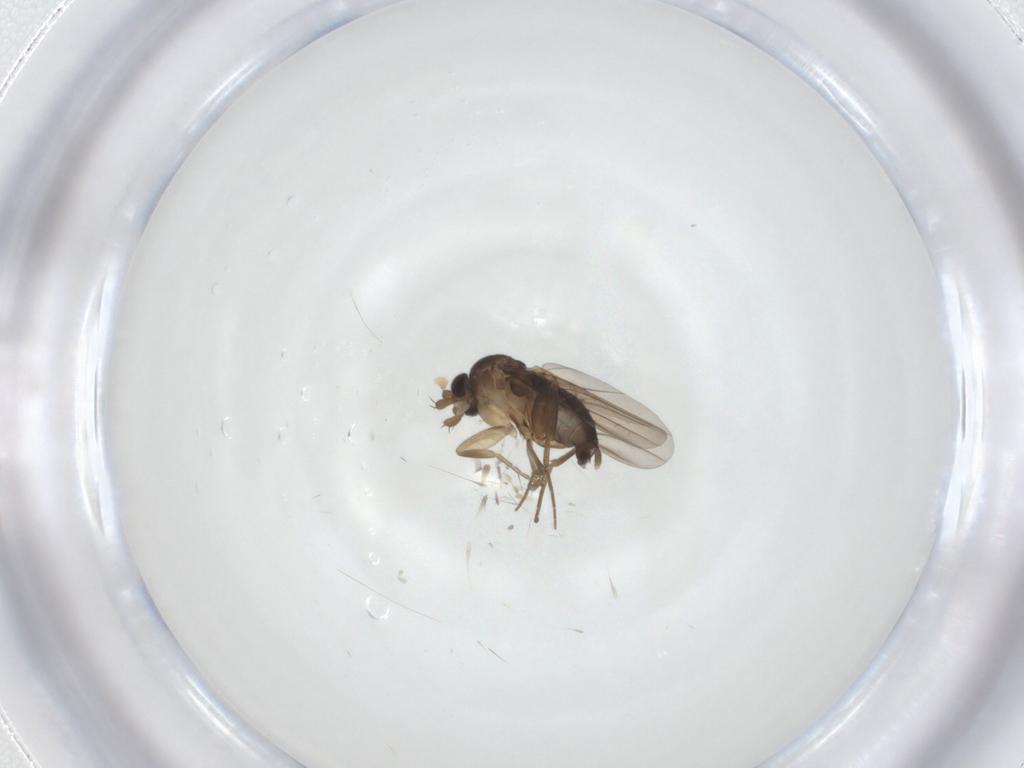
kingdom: Animalia
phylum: Arthropoda
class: Insecta
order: Diptera
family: Phoridae
